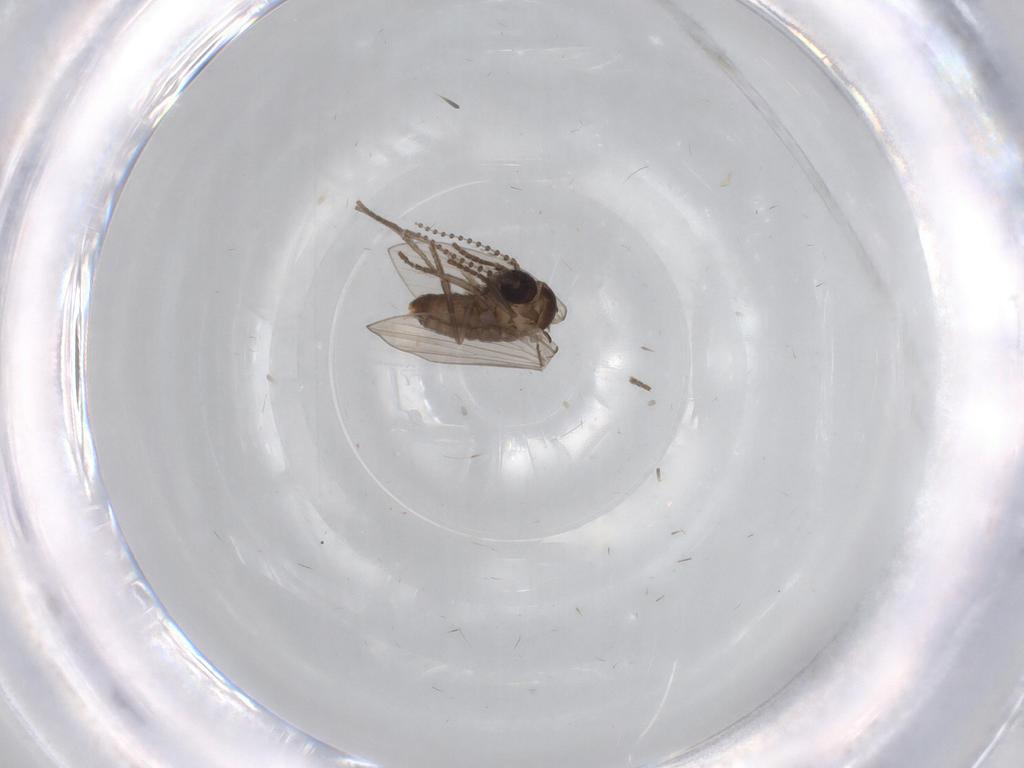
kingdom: Animalia
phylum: Arthropoda
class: Insecta
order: Diptera
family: Psychodidae
